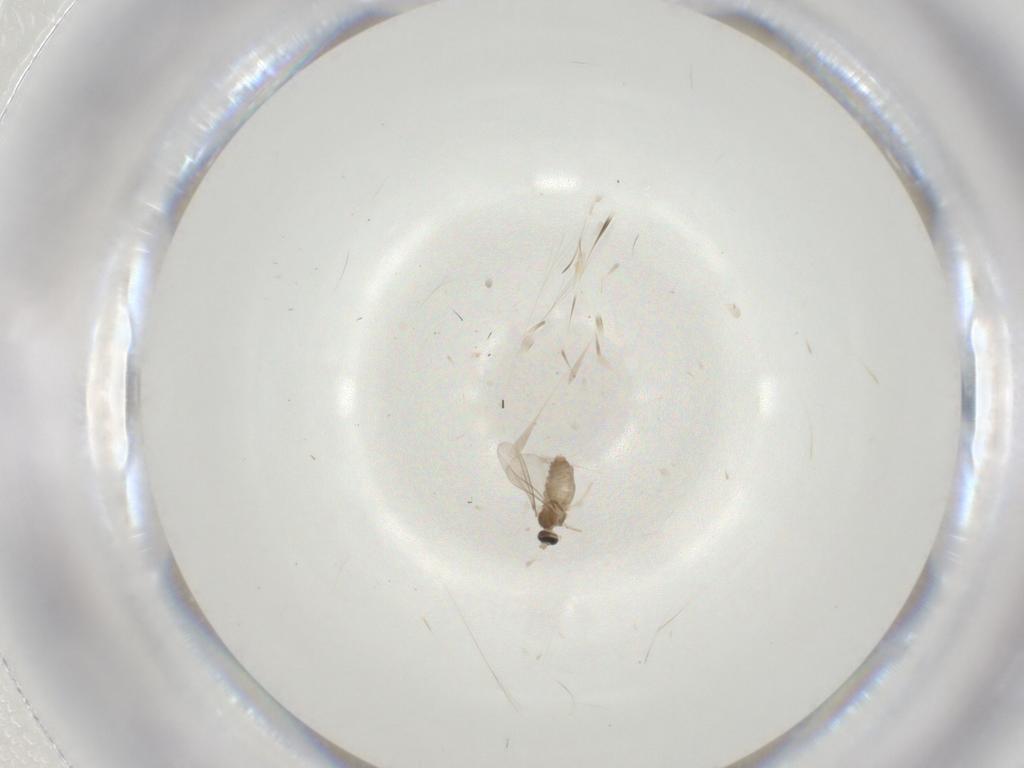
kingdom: Animalia
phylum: Arthropoda
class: Insecta
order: Diptera
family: Cecidomyiidae
